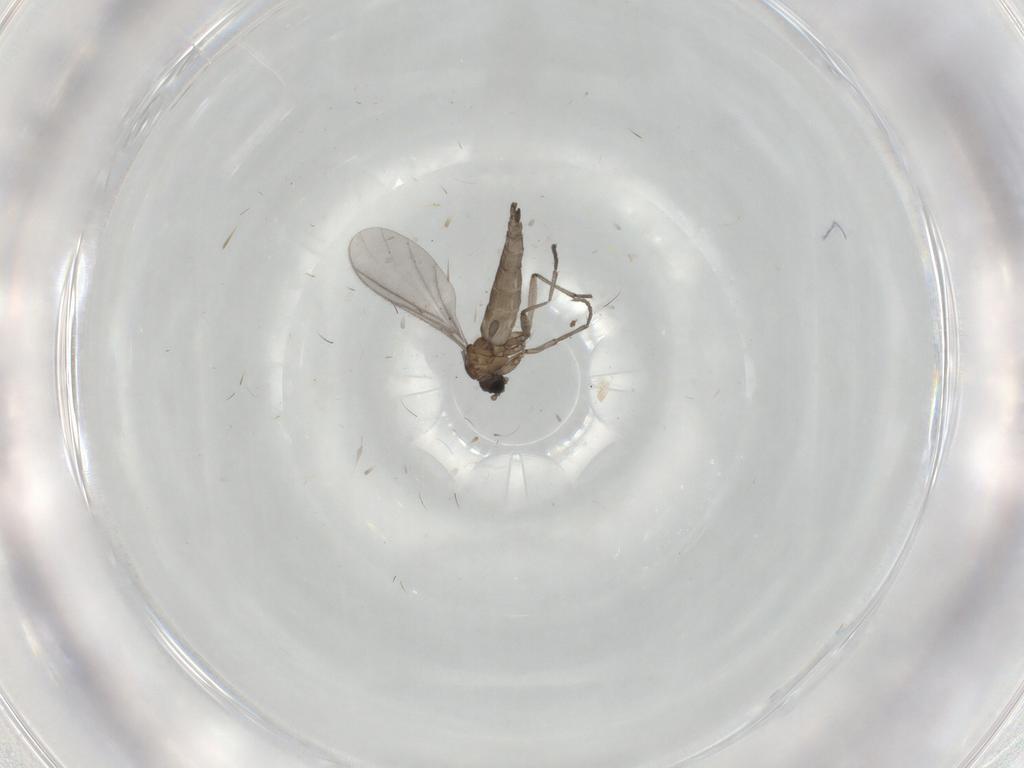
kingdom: Animalia
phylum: Arthropoda
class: Insecta
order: Diptera
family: Sciaridae
